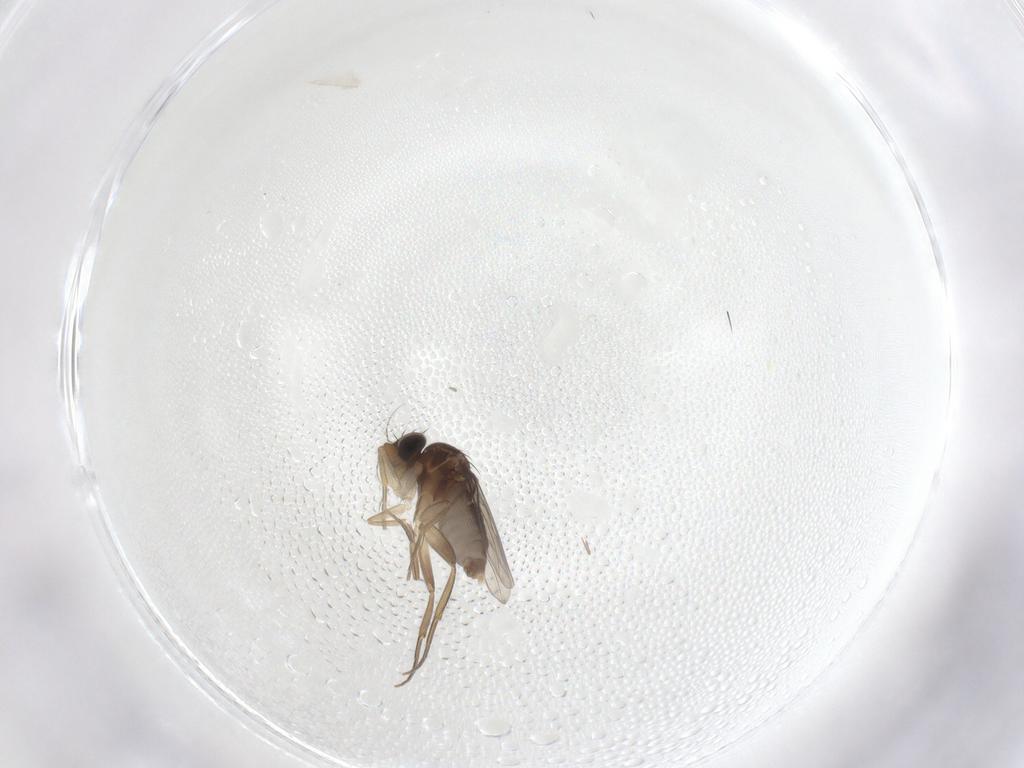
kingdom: Animalia
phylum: Arthropoda
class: Insecta
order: Diptera
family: Phoridae
